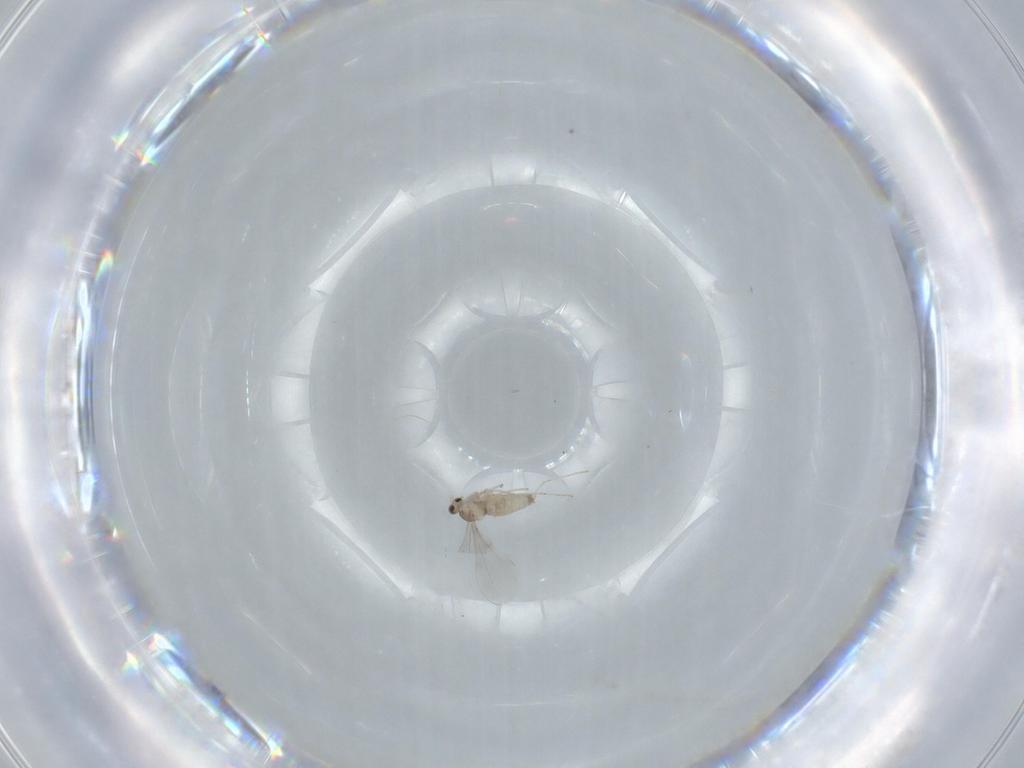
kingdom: Animalia
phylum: Arthropoda
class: Insecta
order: Diptera
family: Cecidomyiidae
